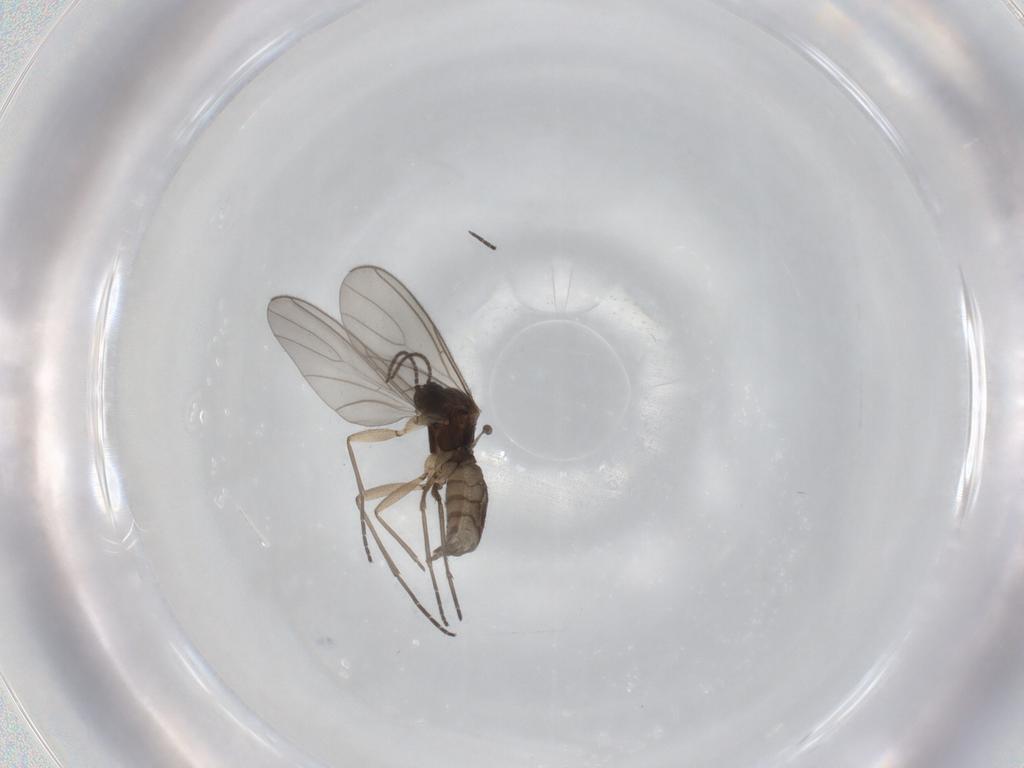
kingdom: Animalia
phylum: Arthropoda
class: Insecta
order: Diptera
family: Sciaridae
